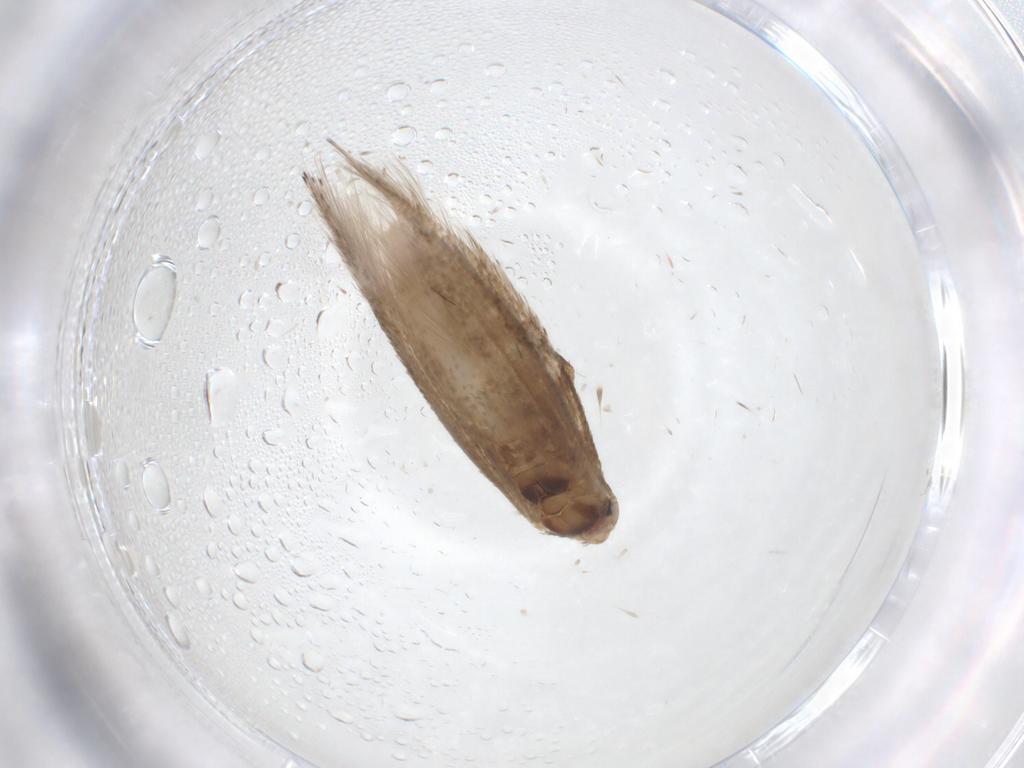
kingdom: Animalia
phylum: Arthropoda
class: Insecta
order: Lepidoptera
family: Bucculatricidae
